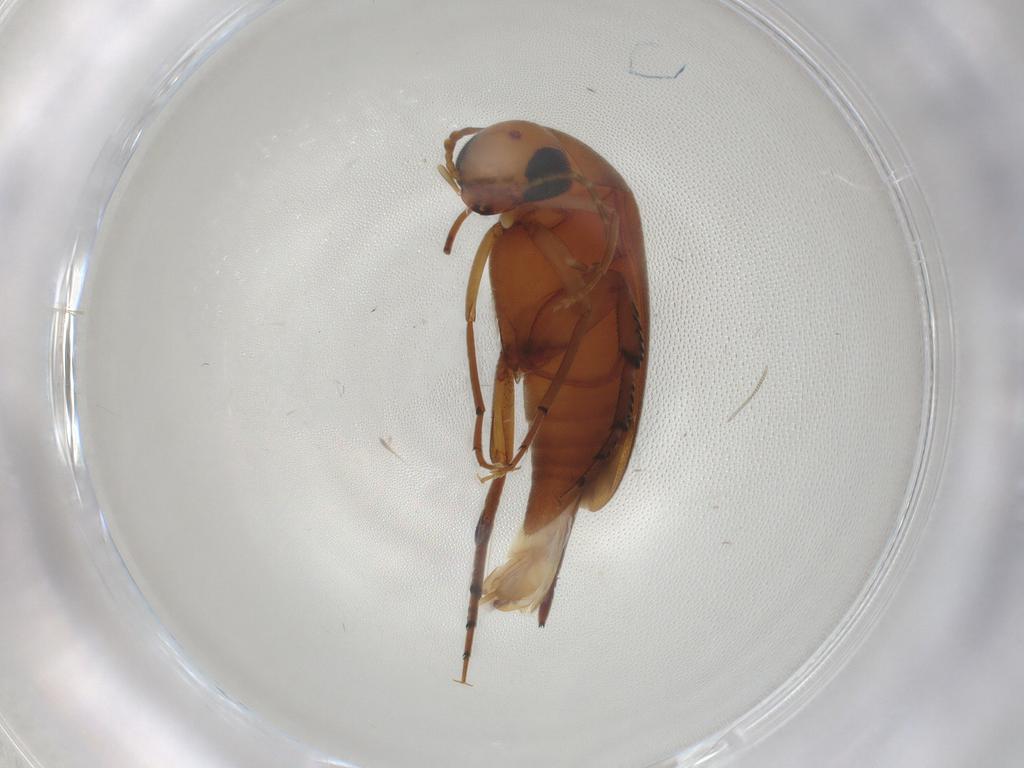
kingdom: Animalia
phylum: Arthropoda
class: Insecta
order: Coleoptera
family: Mordellidae
